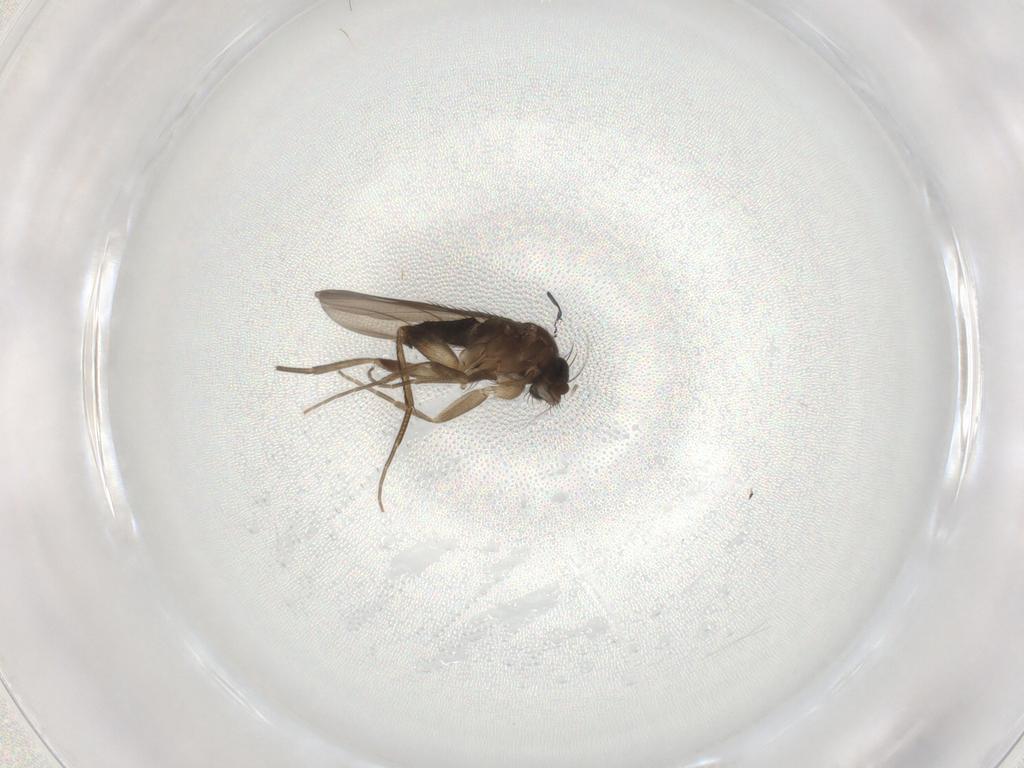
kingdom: Animalia
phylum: Arthropoda
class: Insecta
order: Diptera
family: Phoridae
